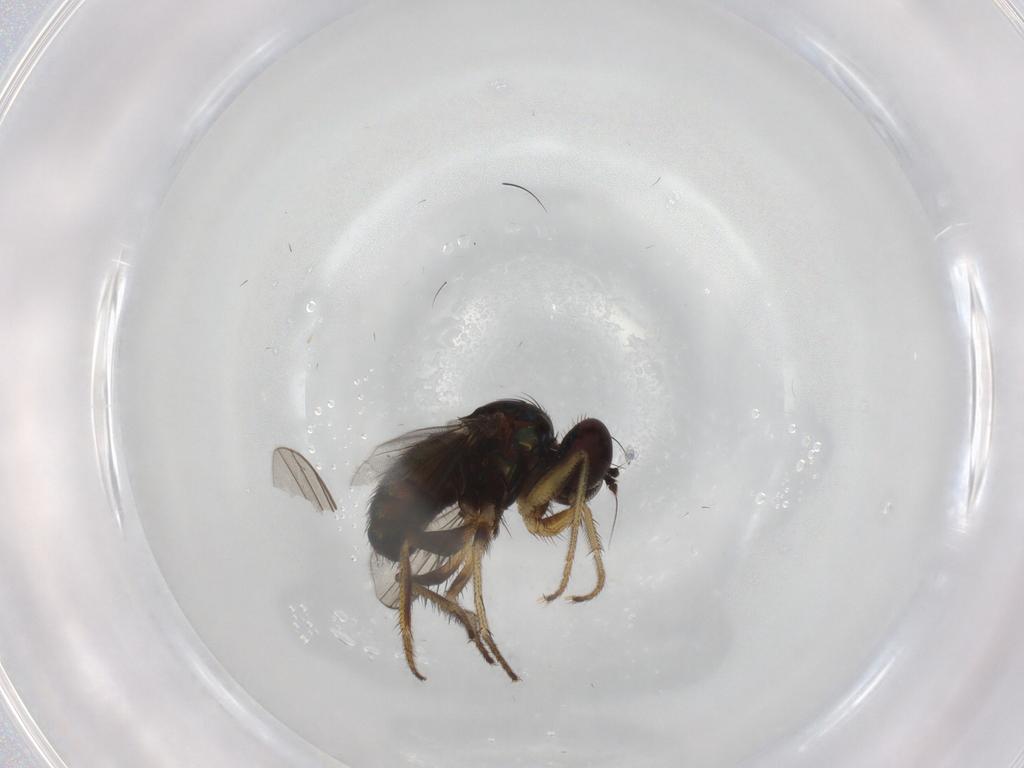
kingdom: Animalia
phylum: Arthropoda
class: Insecta
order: Diptera
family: Dolichopodidae
